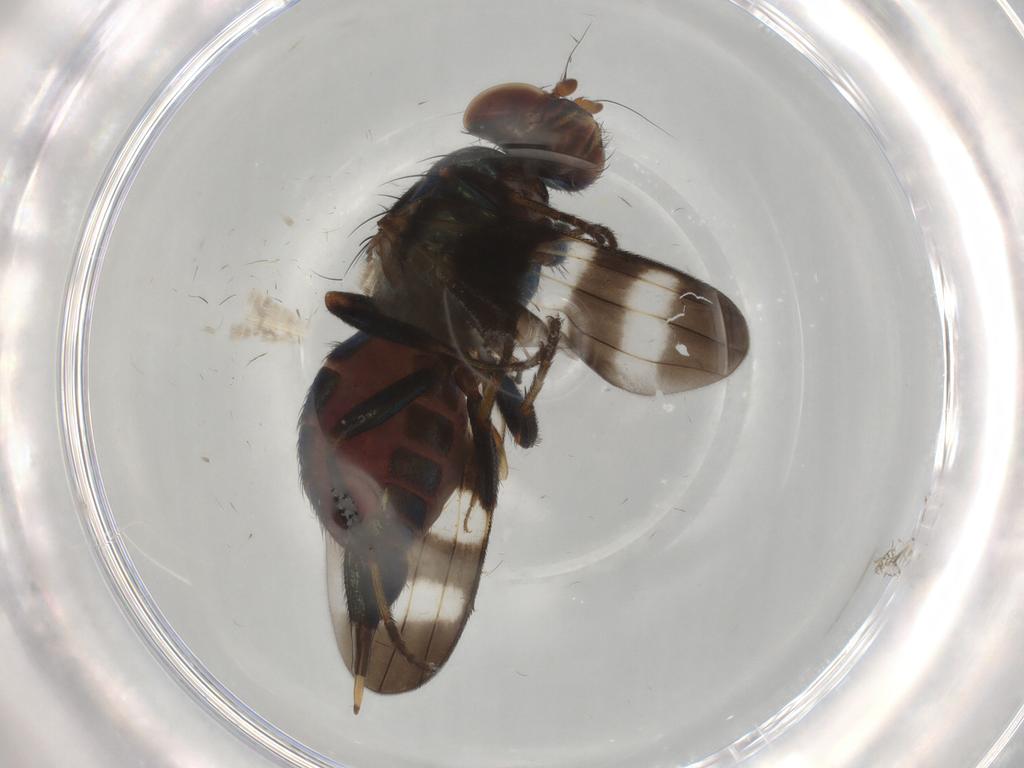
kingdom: Animalia
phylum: Arthropoda
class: Insecta
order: Diptera
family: Cecidomyiidae
